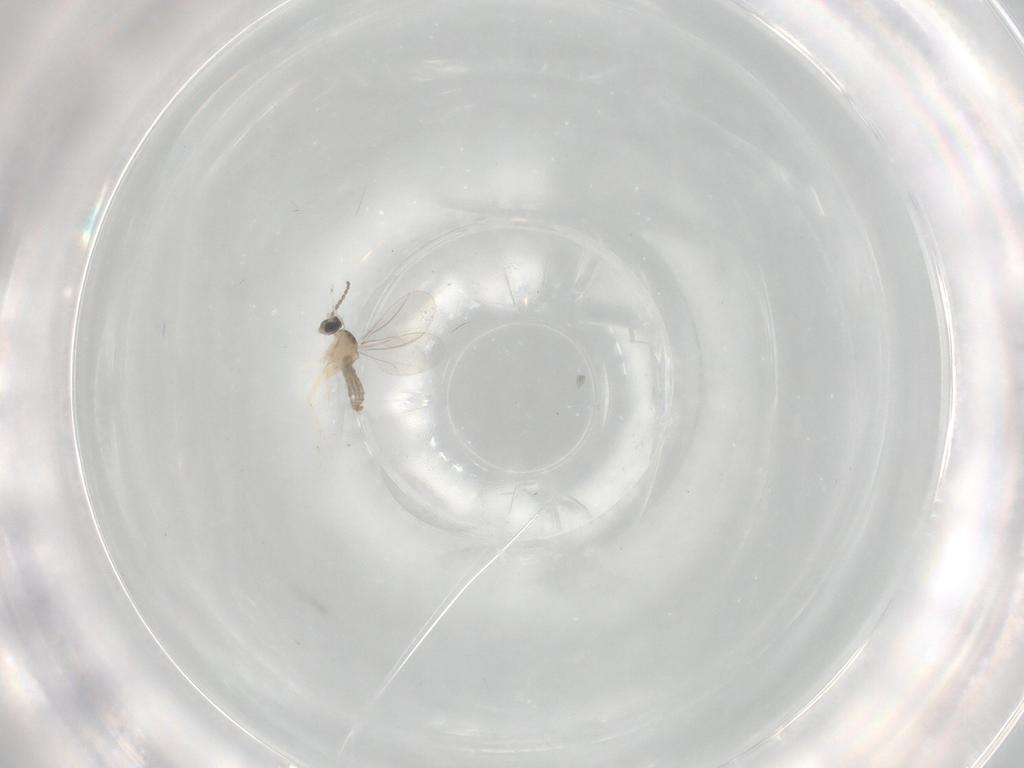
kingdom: Animalia
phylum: Arthropoda
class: Insecta
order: Diptera
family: Cecidomyiidae
